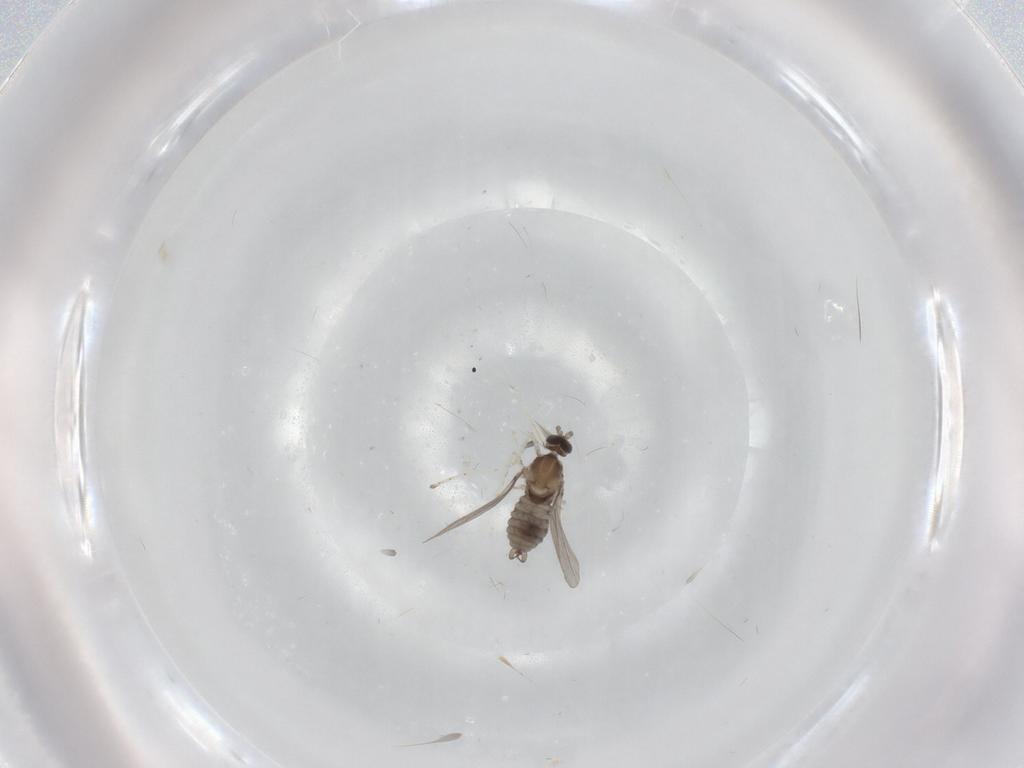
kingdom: Animalia
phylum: Arthropoda
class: Insecta
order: Diptera
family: Cecidomyiidae
